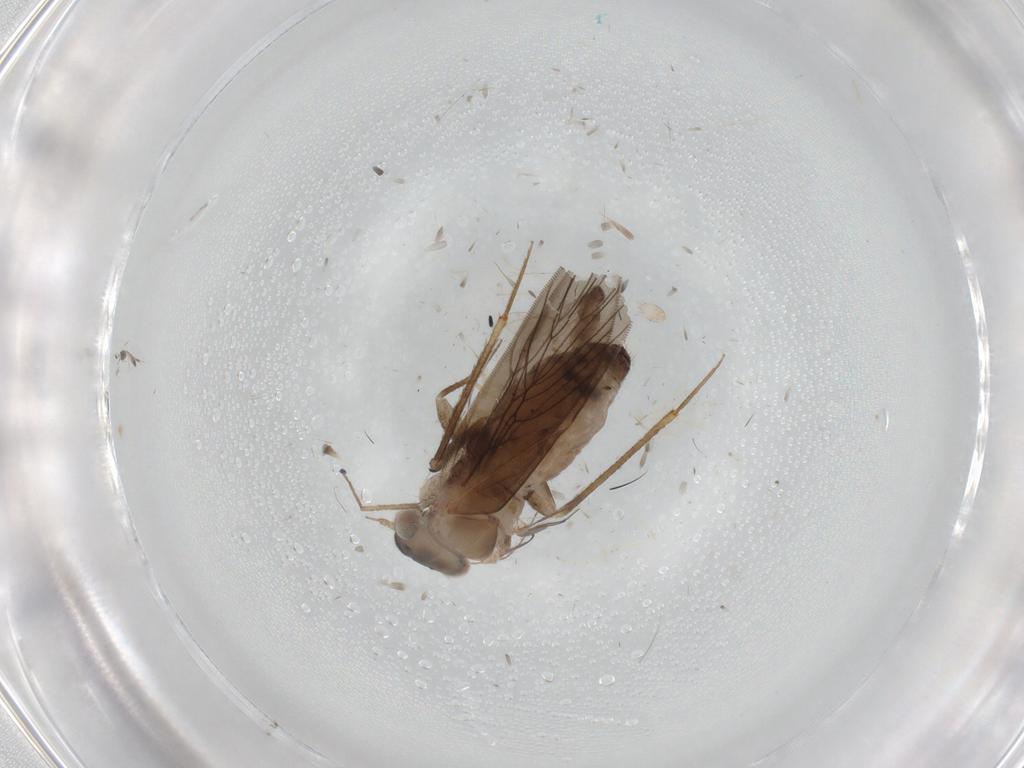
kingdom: Animalia
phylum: Arthropoda
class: Insecta
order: Psocodea
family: Lepidopsocidae
